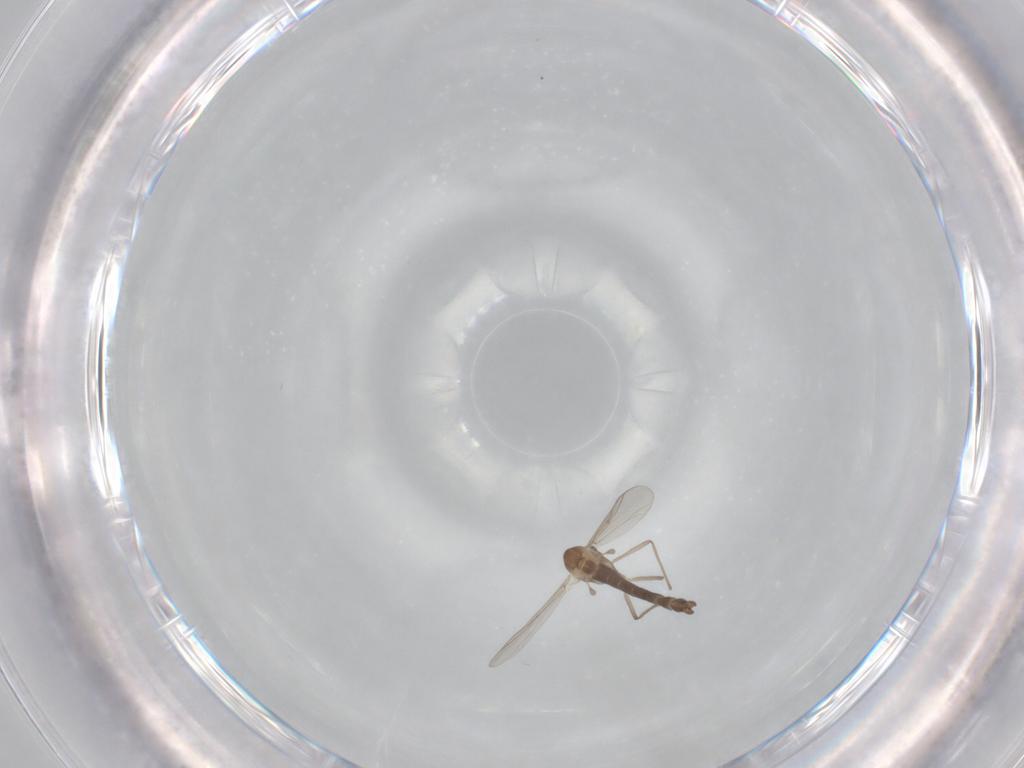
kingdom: Animalia
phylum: Arthropoda
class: Insecta
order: Diptera
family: Chironomidae
